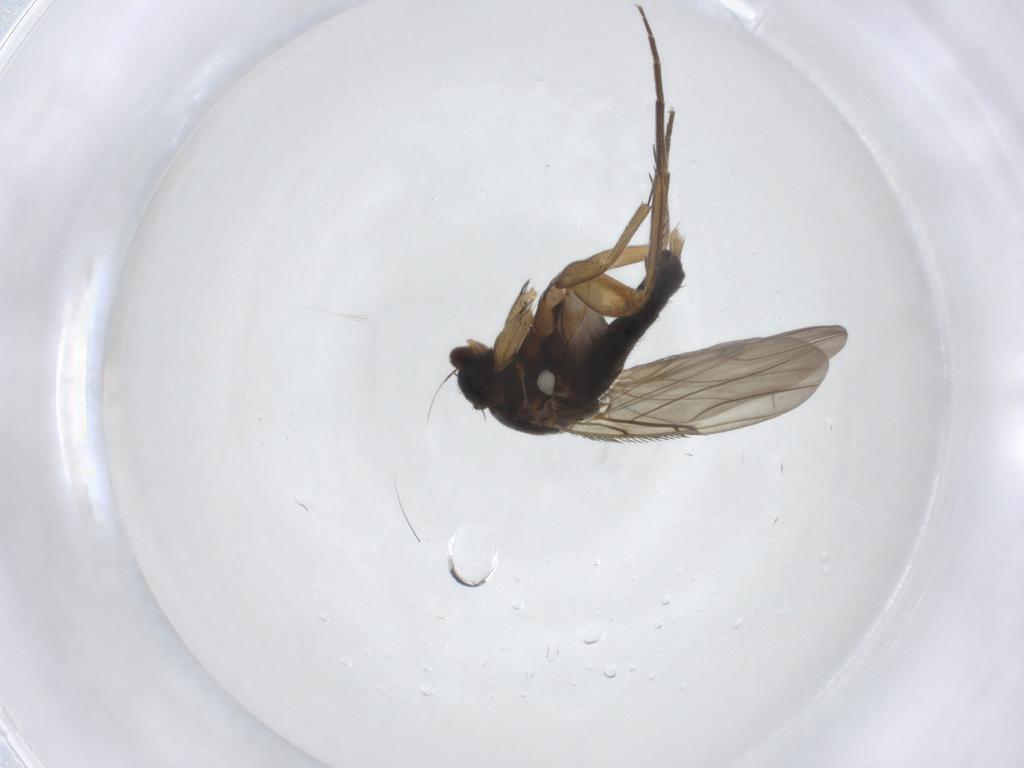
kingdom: Animalia
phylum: Arthropoda
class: Insecta
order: Diptera
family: Phoridae
